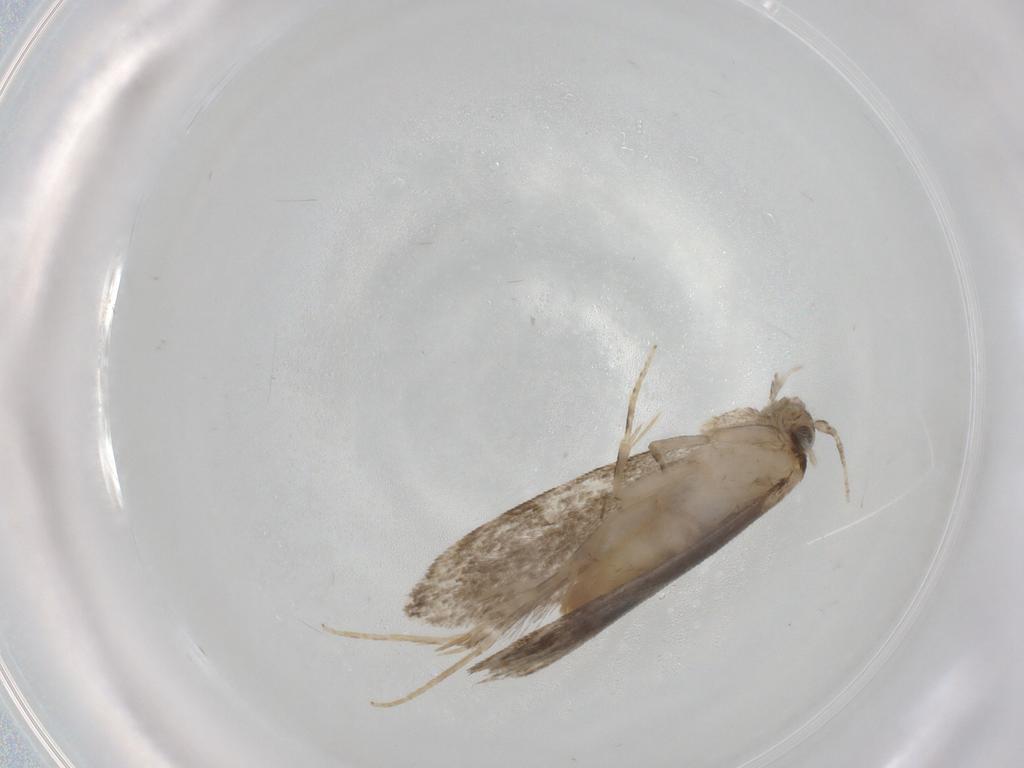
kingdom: Animalia
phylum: Arthropoda
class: Insecta
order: Lepidoptera
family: Tineidae
